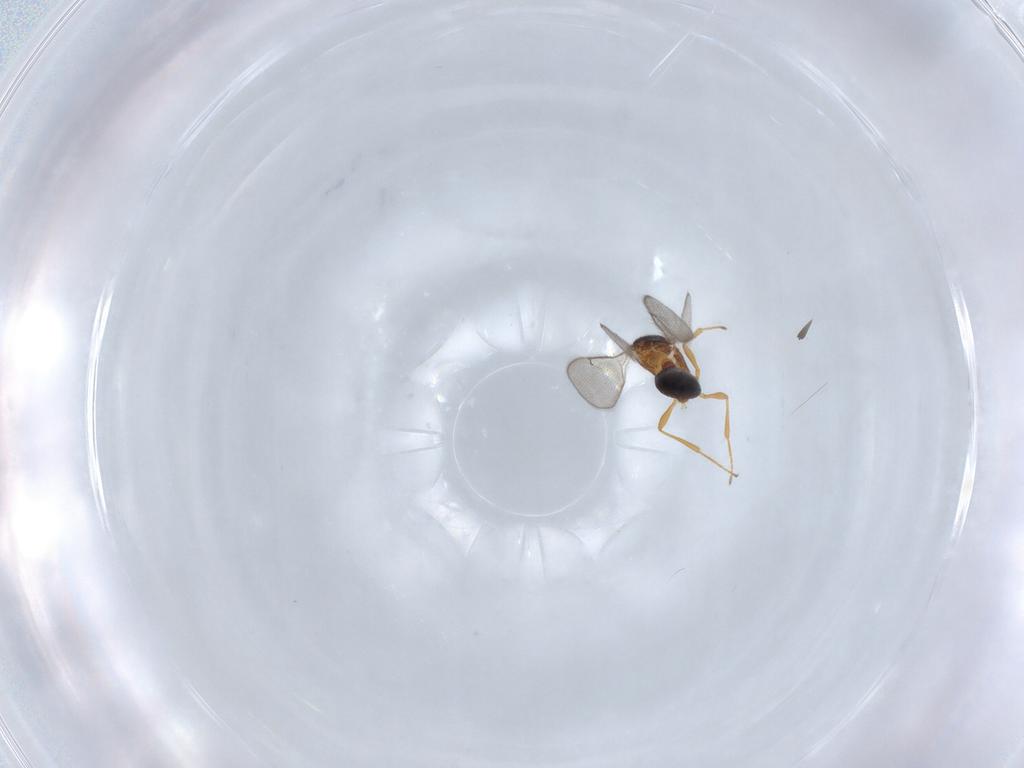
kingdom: Animalia
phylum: Arthropoda
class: Insecta
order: Hymenoptera
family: Scelionidae
